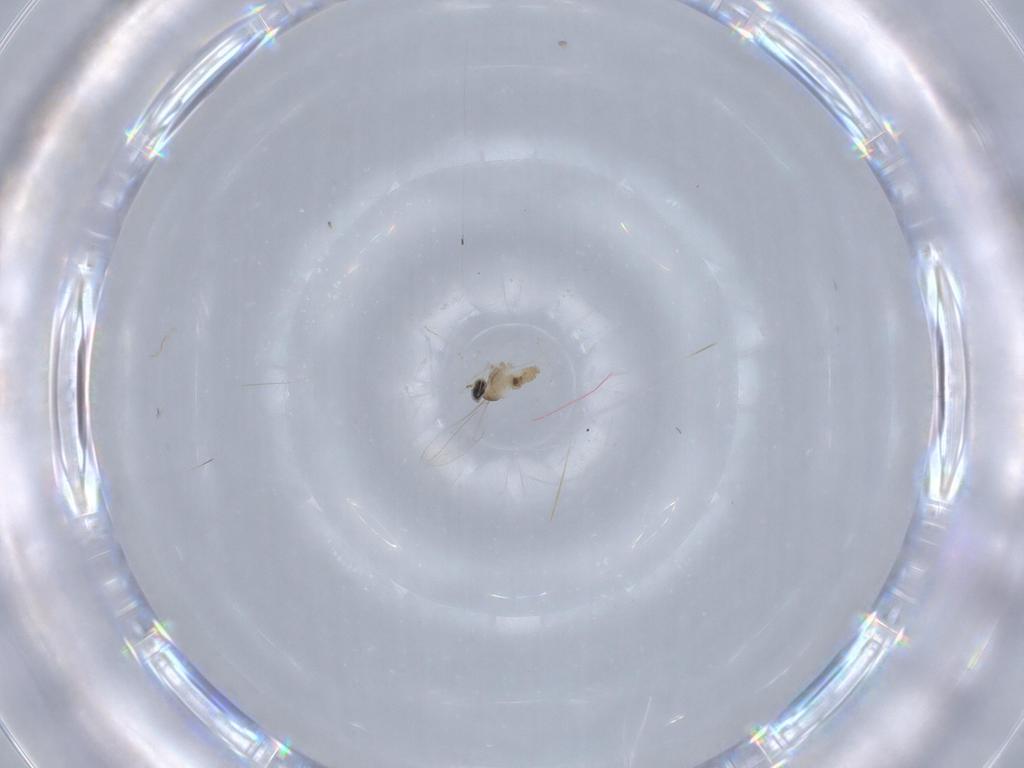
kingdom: Animalia
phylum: Arthropoda
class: Insecta
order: Diptera
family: Cecidomyiidae
